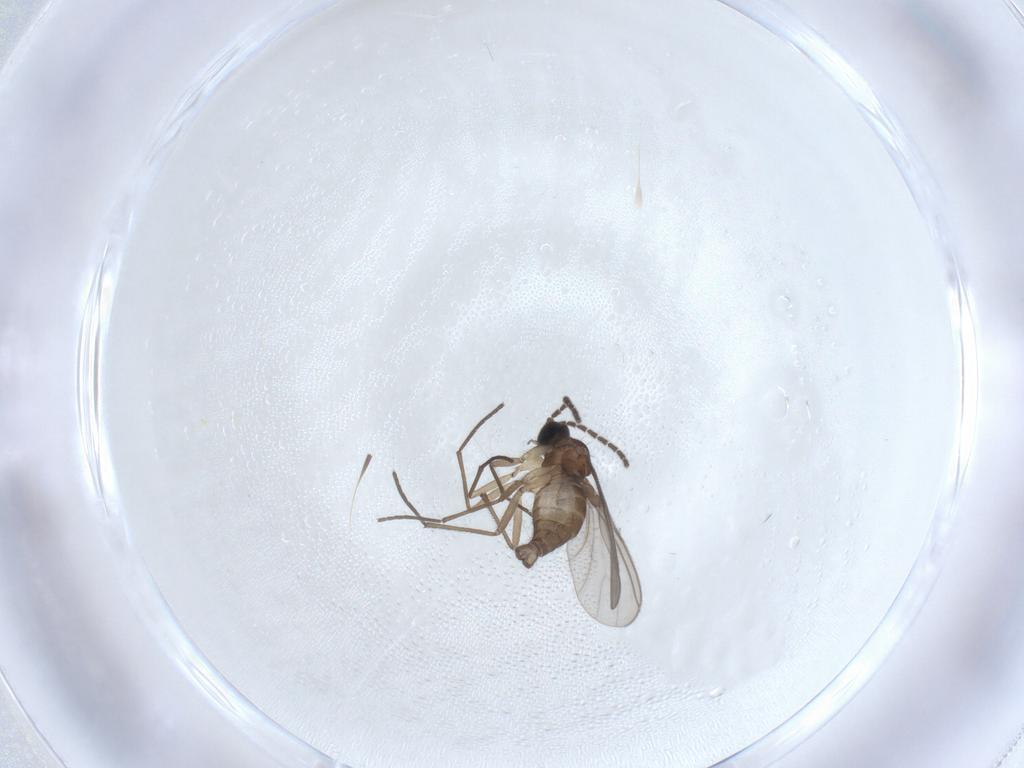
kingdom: Animalia
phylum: Arthropoda
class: Insecta
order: Diptera
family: Sciaridae
